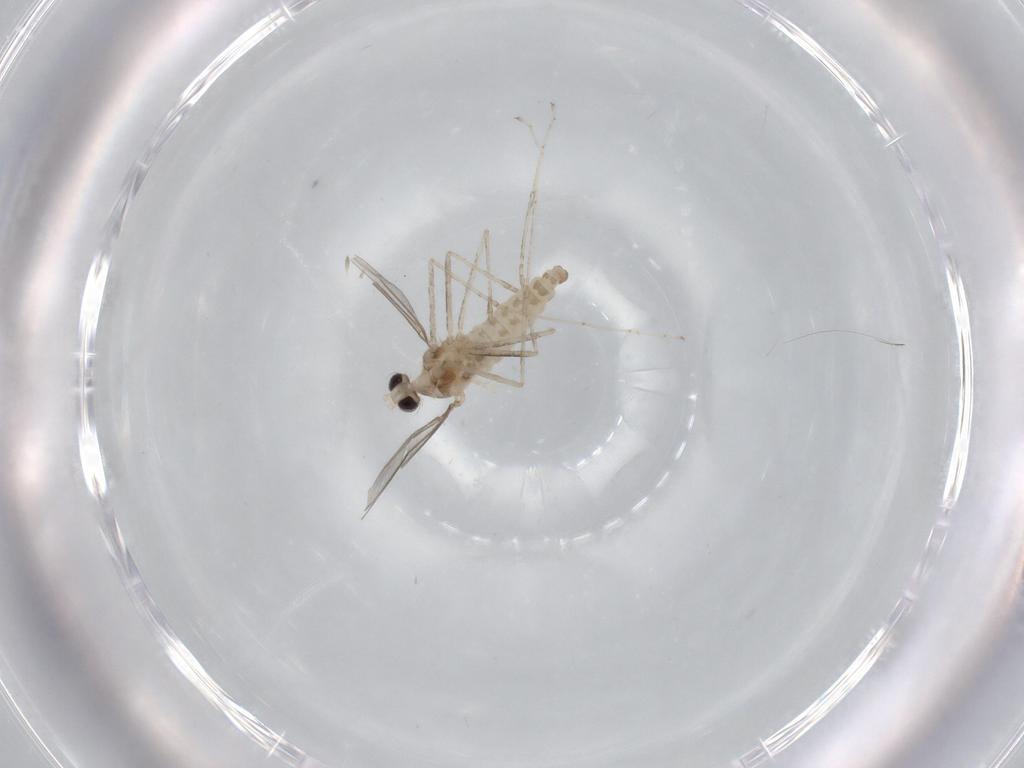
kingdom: Animalia
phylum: Arthropoda
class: Insecta
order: Diptera
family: Cecidomyiidae
